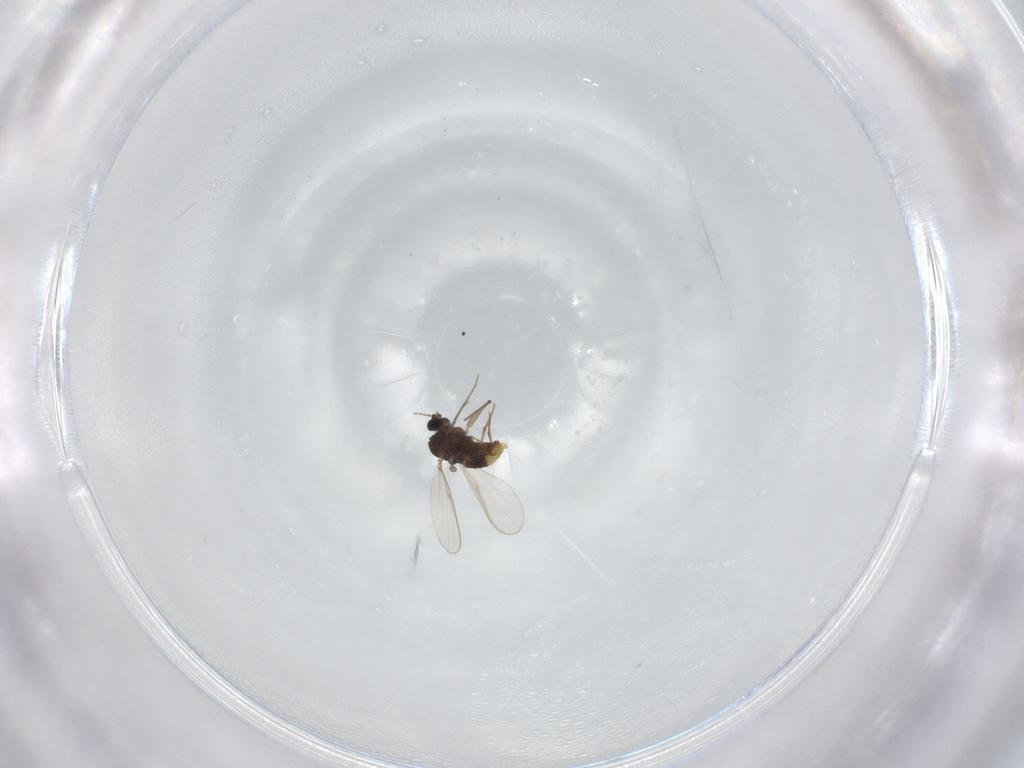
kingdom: Animalia
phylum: Arthropoda
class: Insecta
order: Diptera
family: Chironomidae
